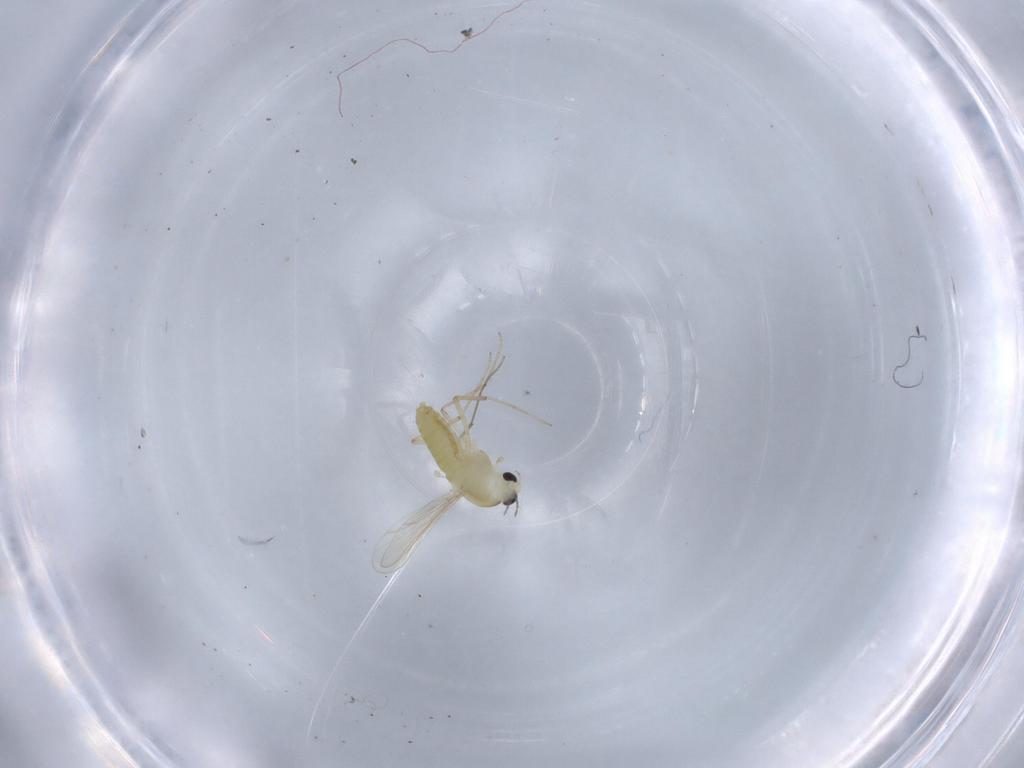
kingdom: Animalia
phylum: Arthropoda
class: Insecta
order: Diptera
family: Chironomidae
